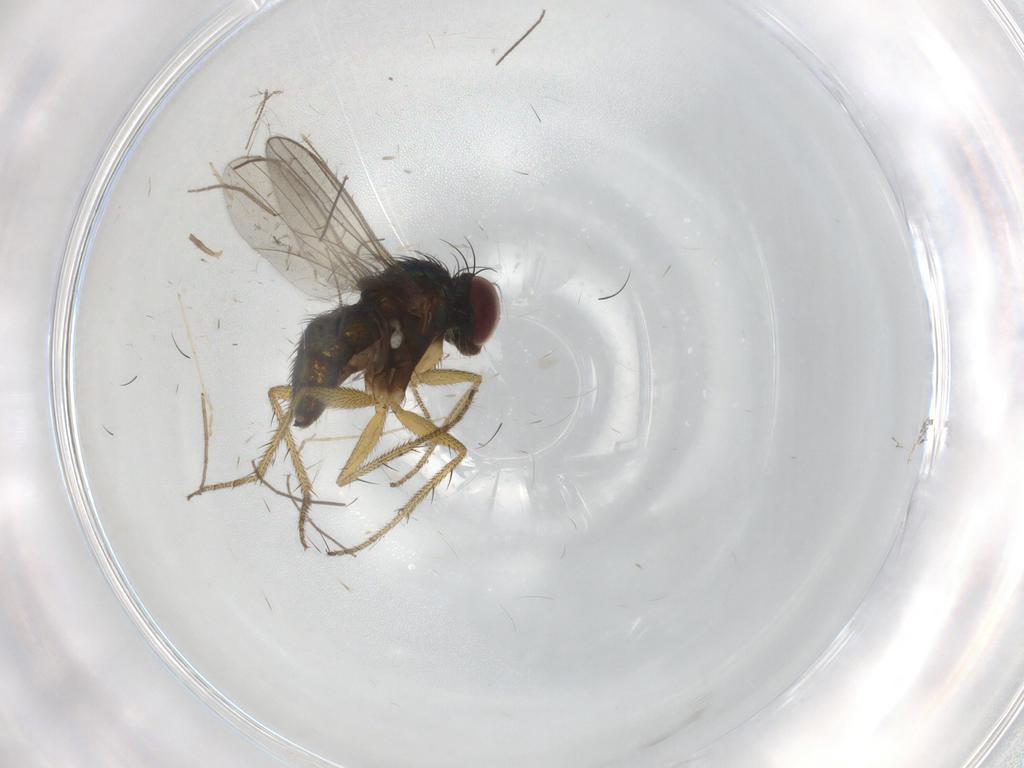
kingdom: Animalia
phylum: Arthropoda
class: Insecta
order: Diptera
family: Chironomidae
